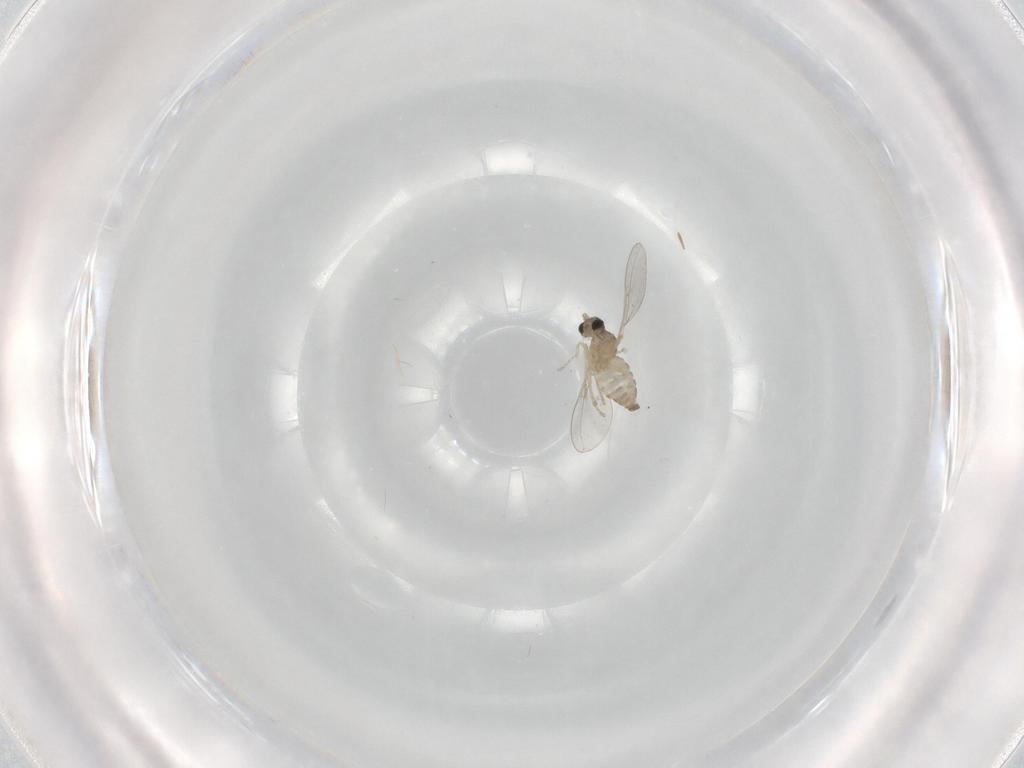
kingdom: Animalia
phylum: Arthropoda
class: Insecta
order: Diptera
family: Cecidomyiidae
